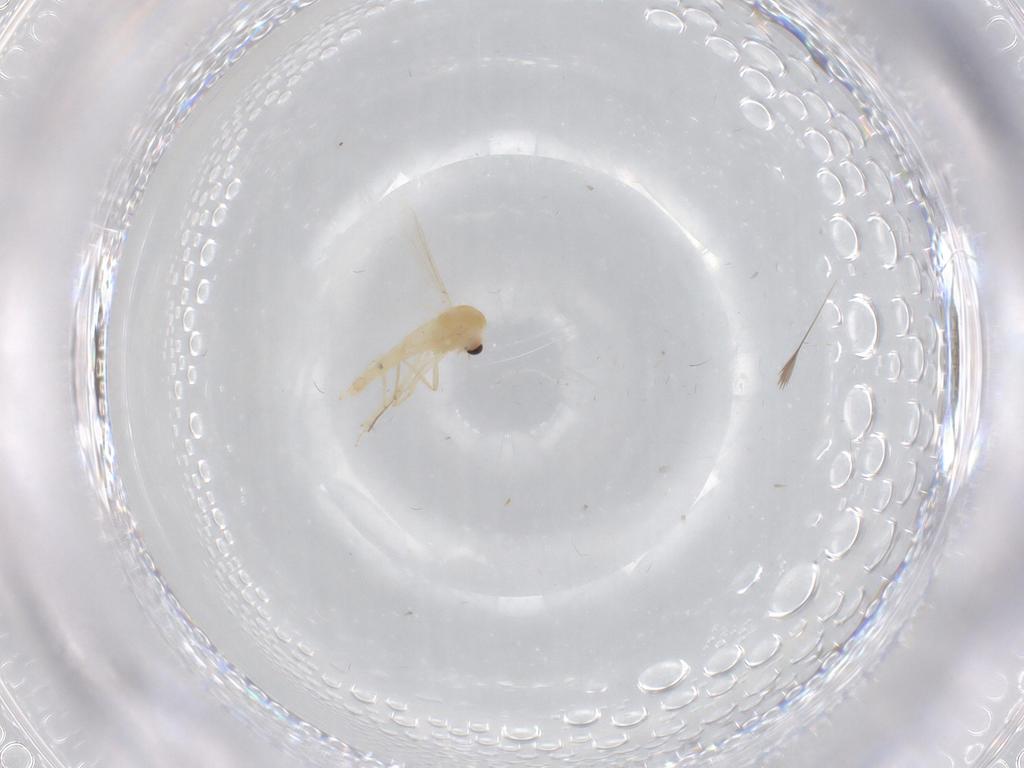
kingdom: Animalia
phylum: Arthropoda
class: Insecta
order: Diptera
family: Chironomidae
